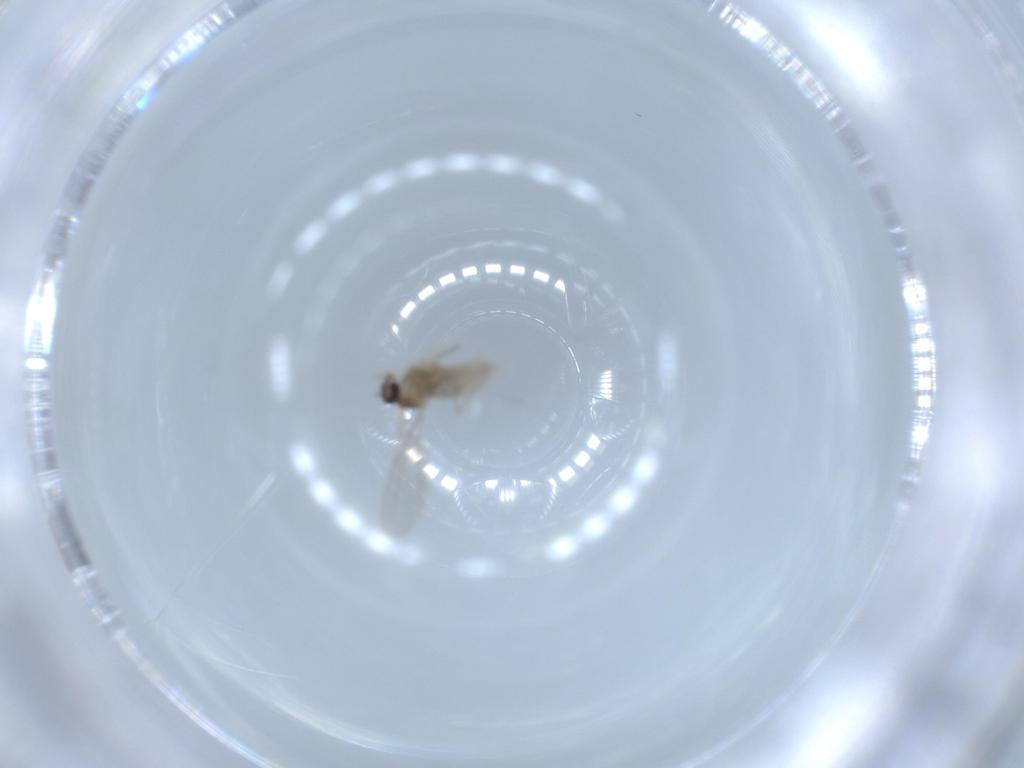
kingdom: Animalia
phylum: Arthropoda
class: Insecta
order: Diptera
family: Cecidomyiidae
